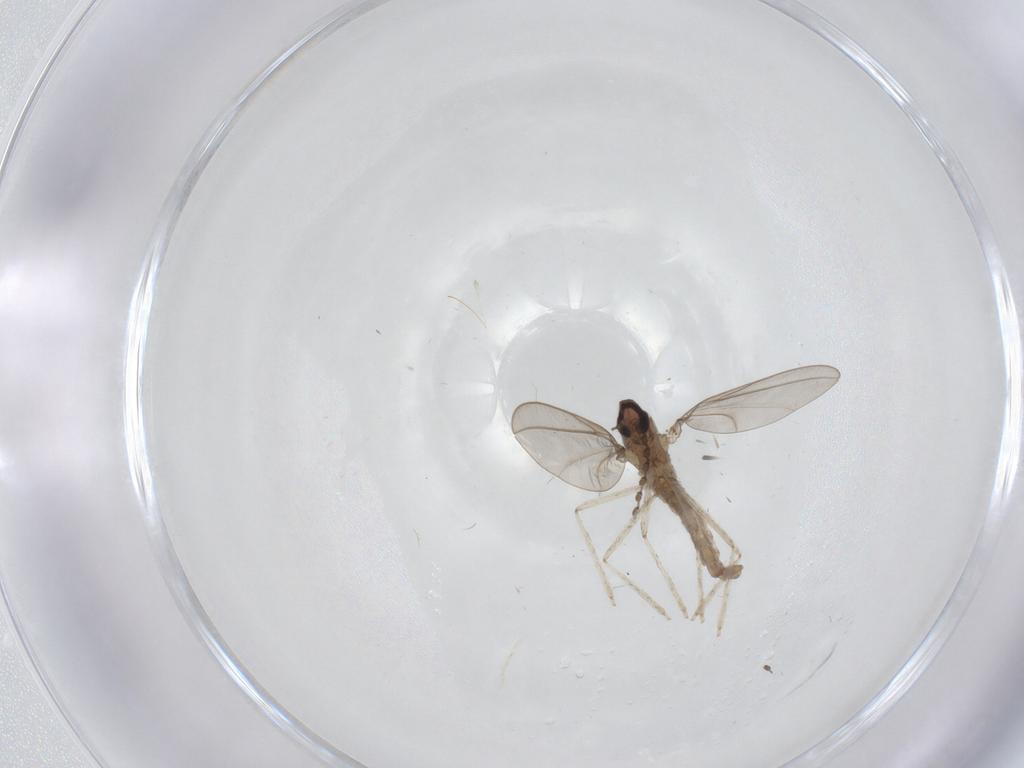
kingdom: Animalia
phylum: Arthropoda
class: Insecta
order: Diptera
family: Cecidomyiidae
